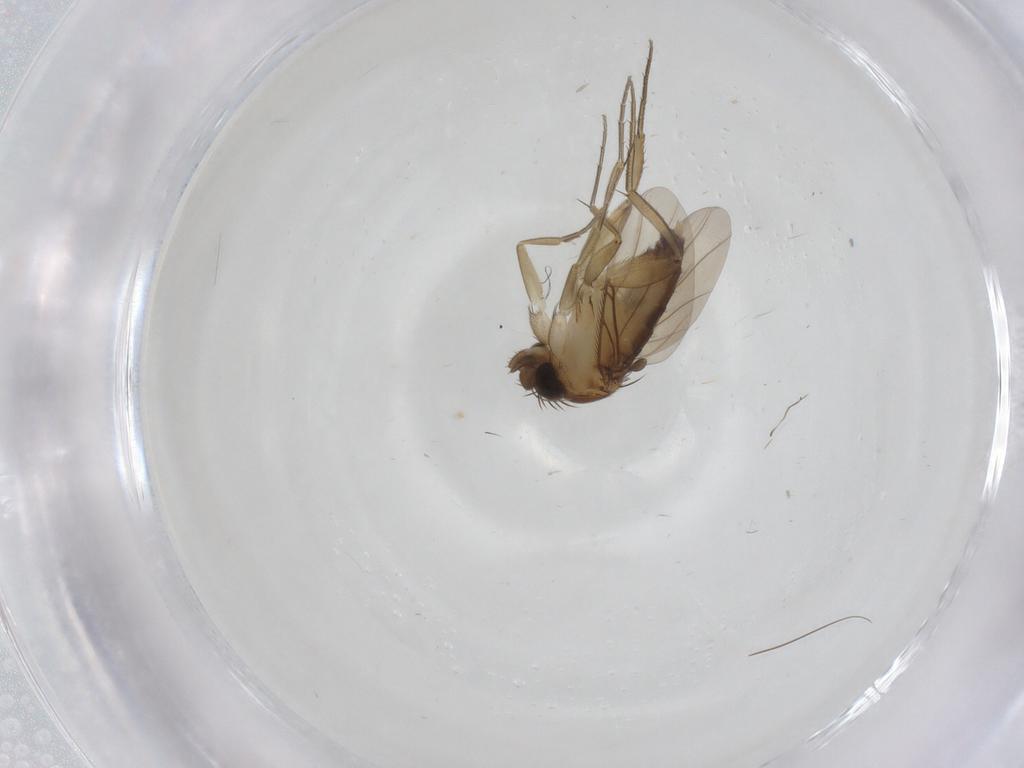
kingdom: Animalia
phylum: Arthropoda
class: Insecta
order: Diptera
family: Phoridae
